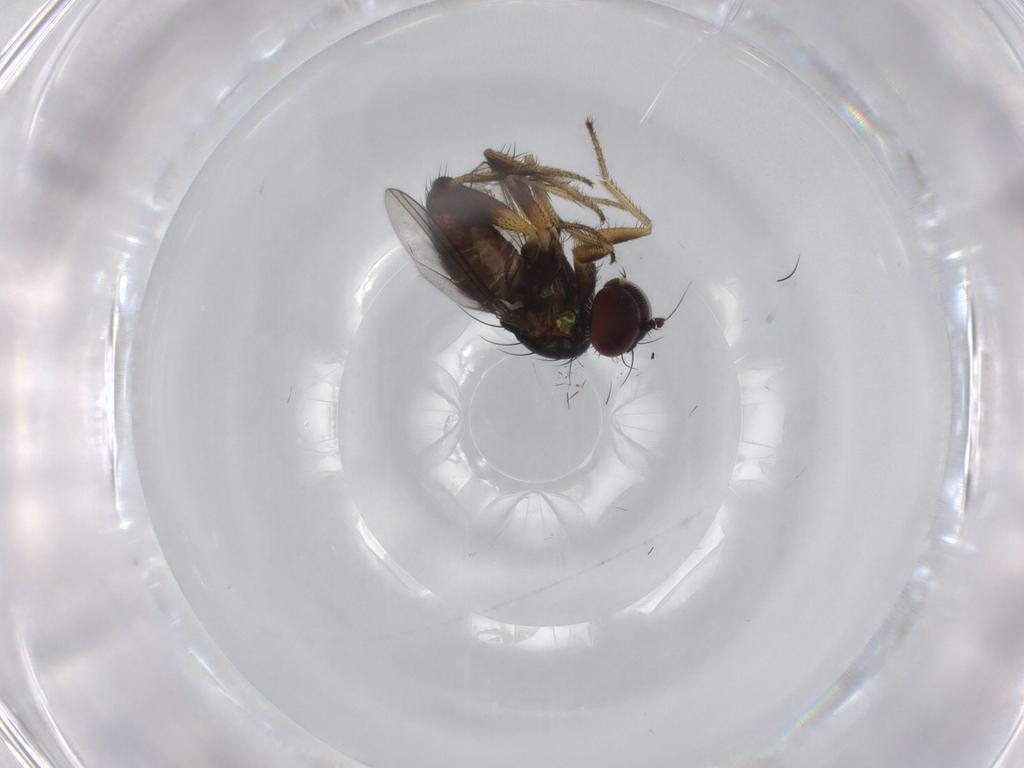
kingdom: Animalia
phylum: Arthropoda
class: Insecta
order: Diptera
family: Dolichopodidae
